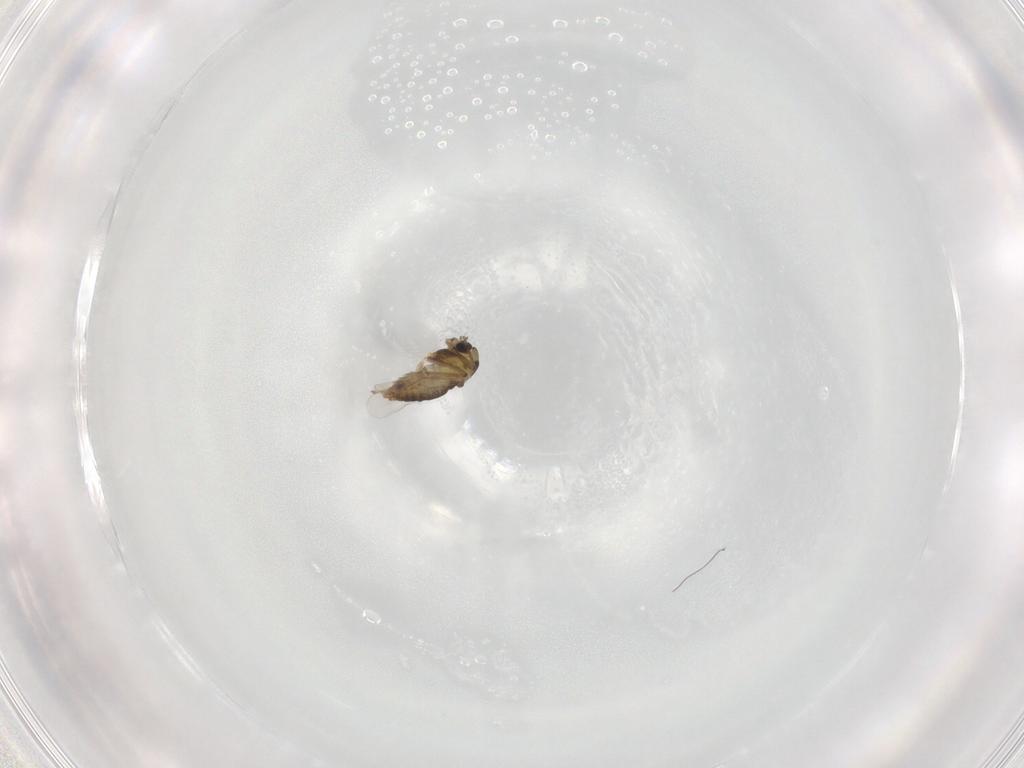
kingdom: Animalia
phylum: Arthropoda
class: Insecta
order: Diptera
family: Chironomidae
